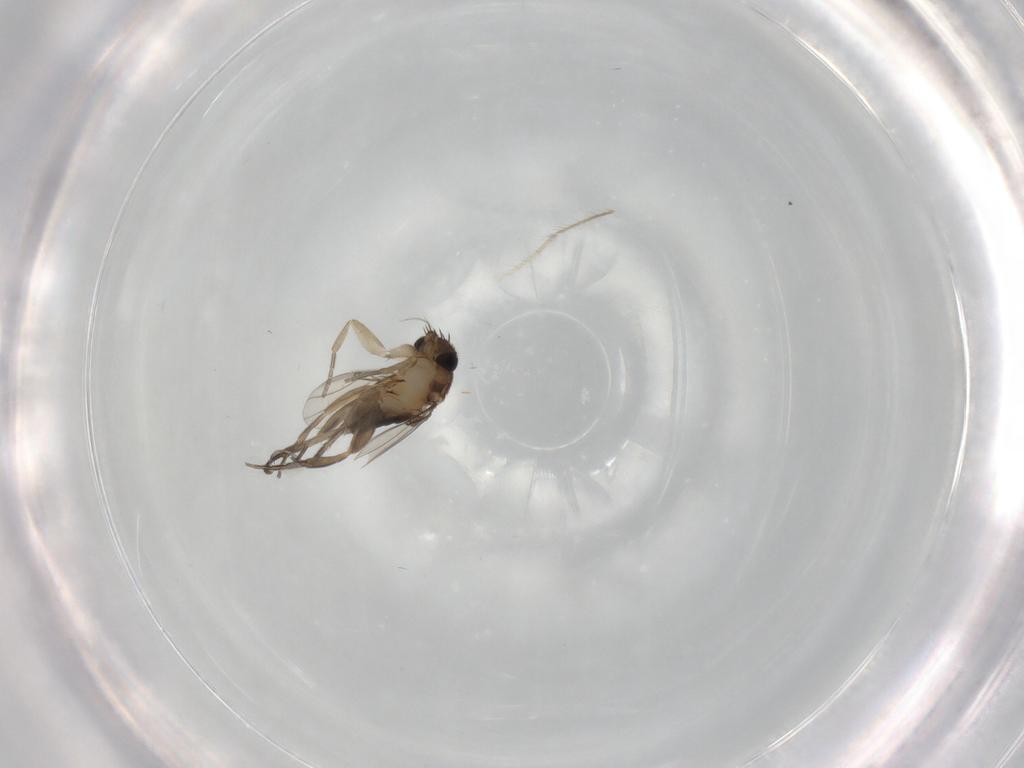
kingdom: Animalia
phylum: Arthropoda
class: Insecta
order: Diptera
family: Phoridae
